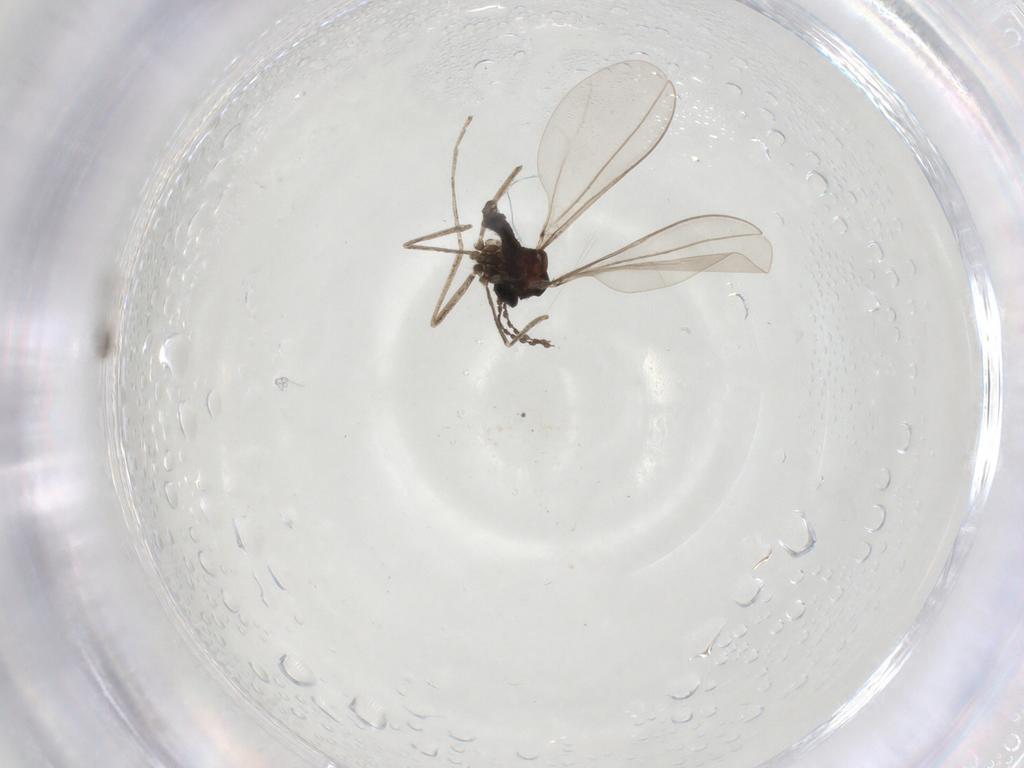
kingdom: Animalia
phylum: Arthropoda
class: Insecta
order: Diptera
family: Cecidomyiidae
